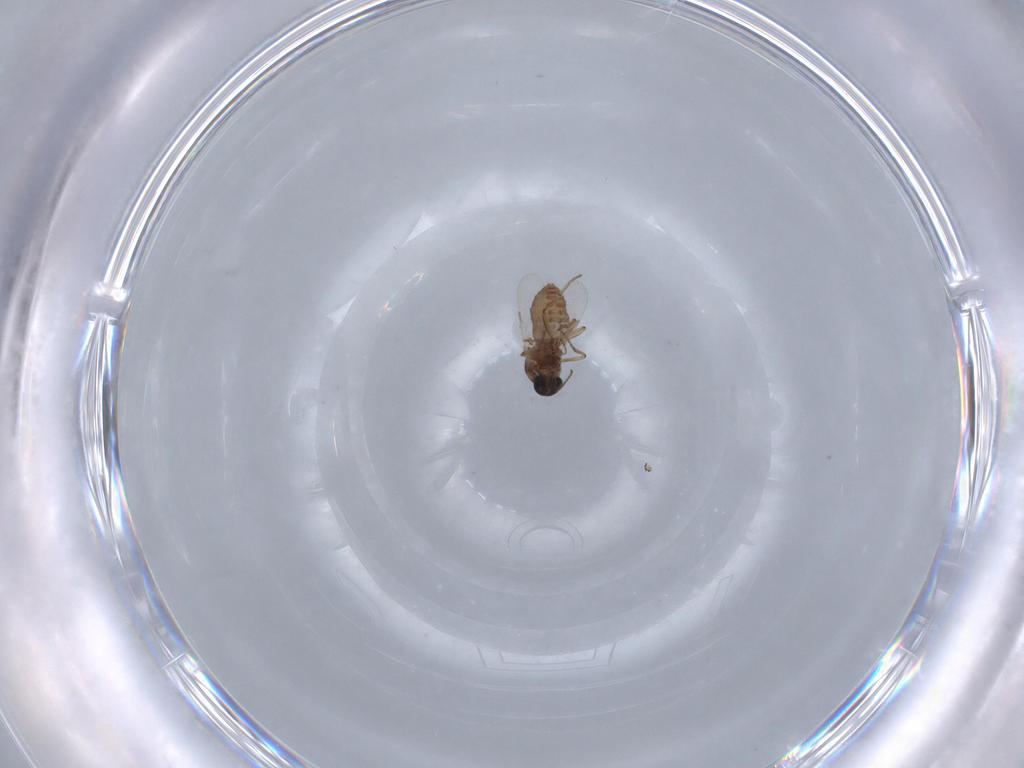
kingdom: Animalia
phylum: Arthropoda
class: Insecta
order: Diptera
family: Ceratopogonidae
